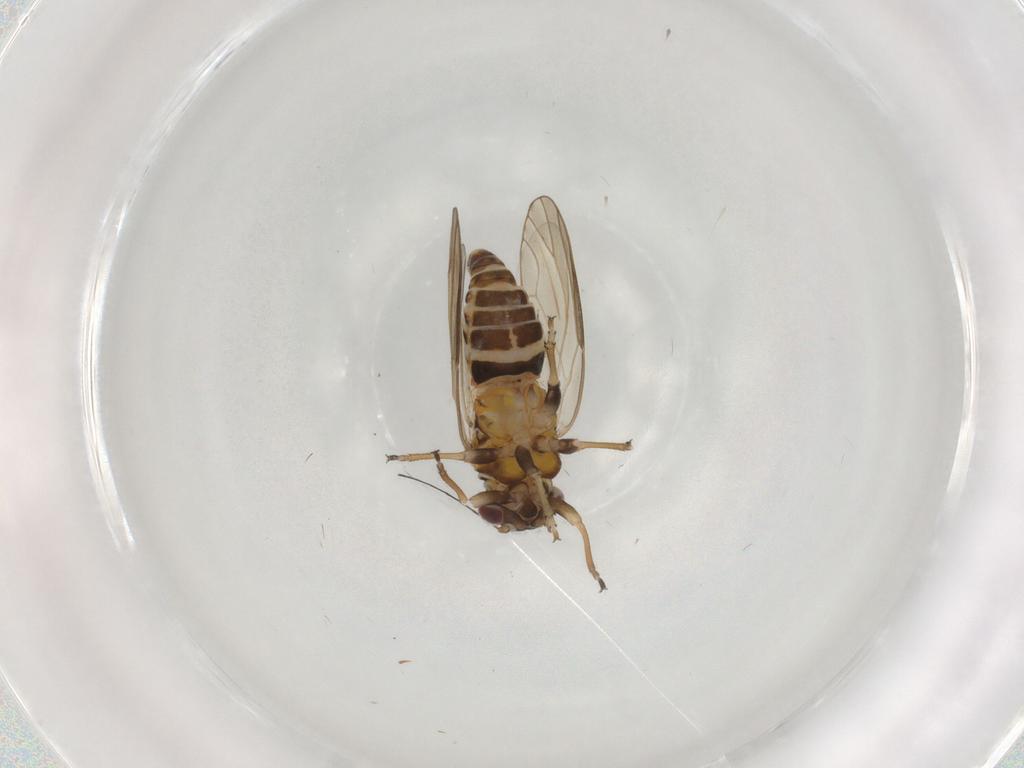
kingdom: Animalia
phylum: Arthropoda
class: Insecta
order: Hemiptera
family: Psyllidae
